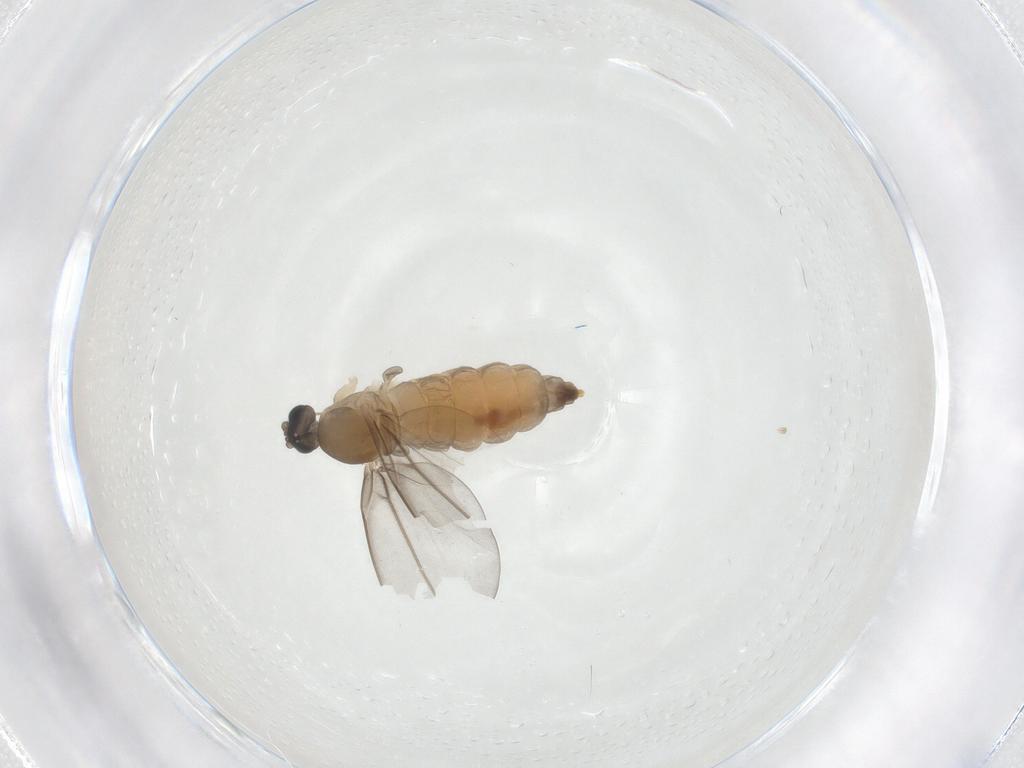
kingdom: Animalia
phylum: Arthropoda
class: Insecta
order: Diptera
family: Cecidomyiidae
